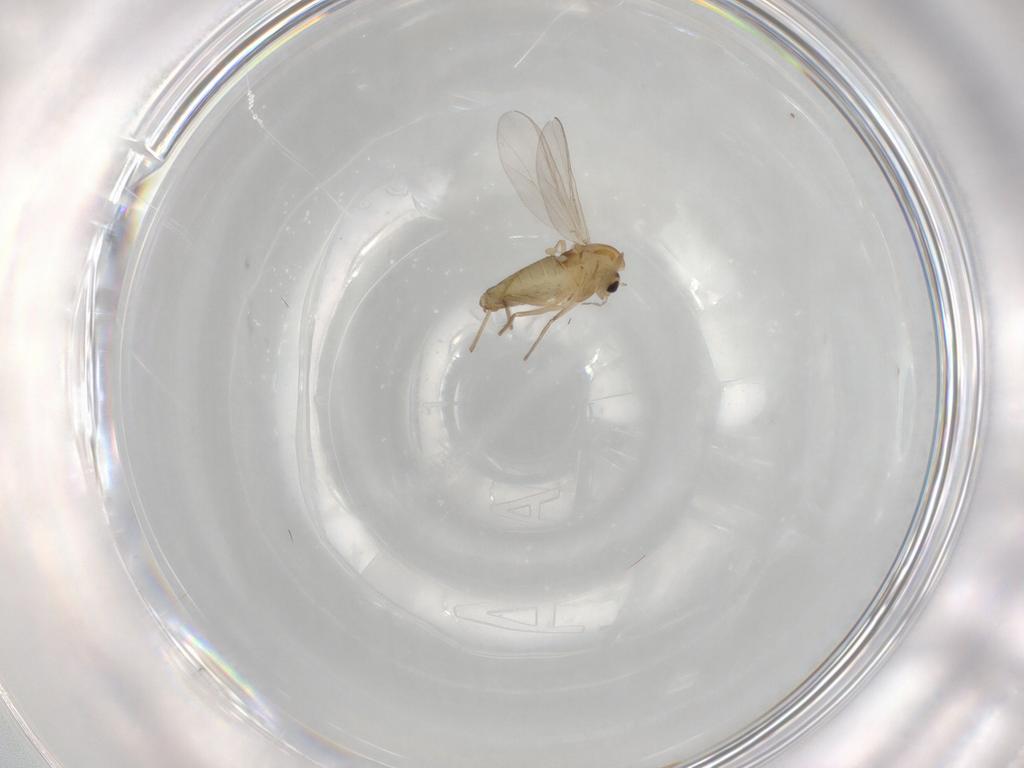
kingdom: Animalia
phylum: Arthropoda
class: Insecta
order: Diptera
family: Chironomidae
